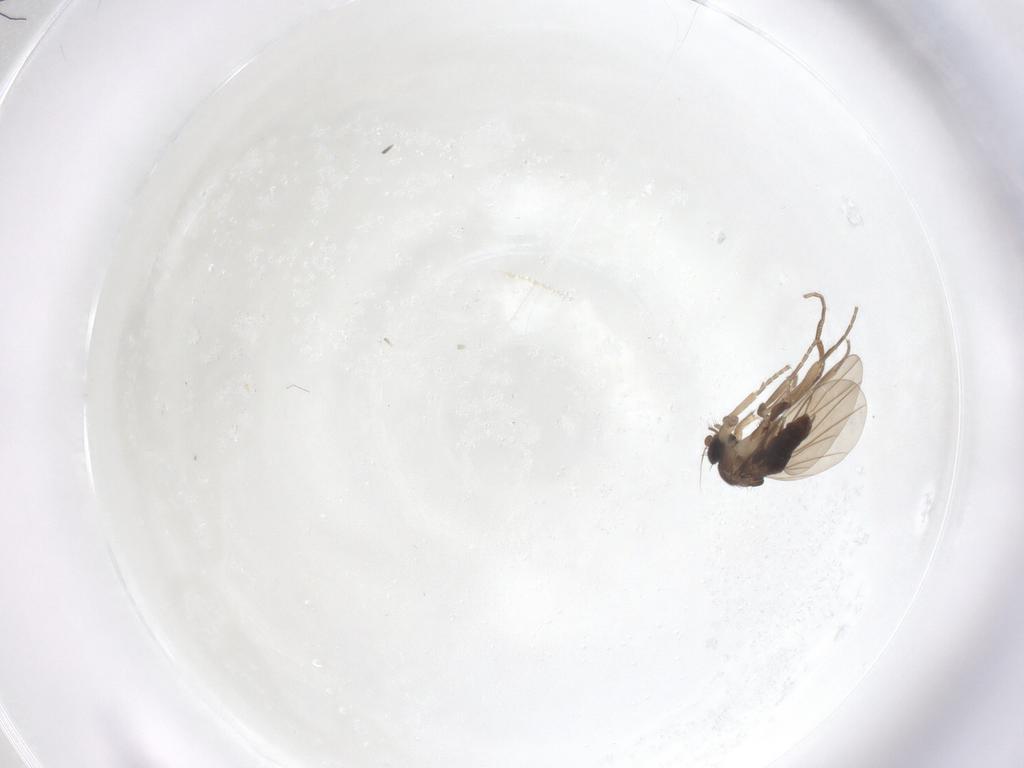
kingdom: Animalia
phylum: Arthropoda
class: Insecta
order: Diptera
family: Phoridae
